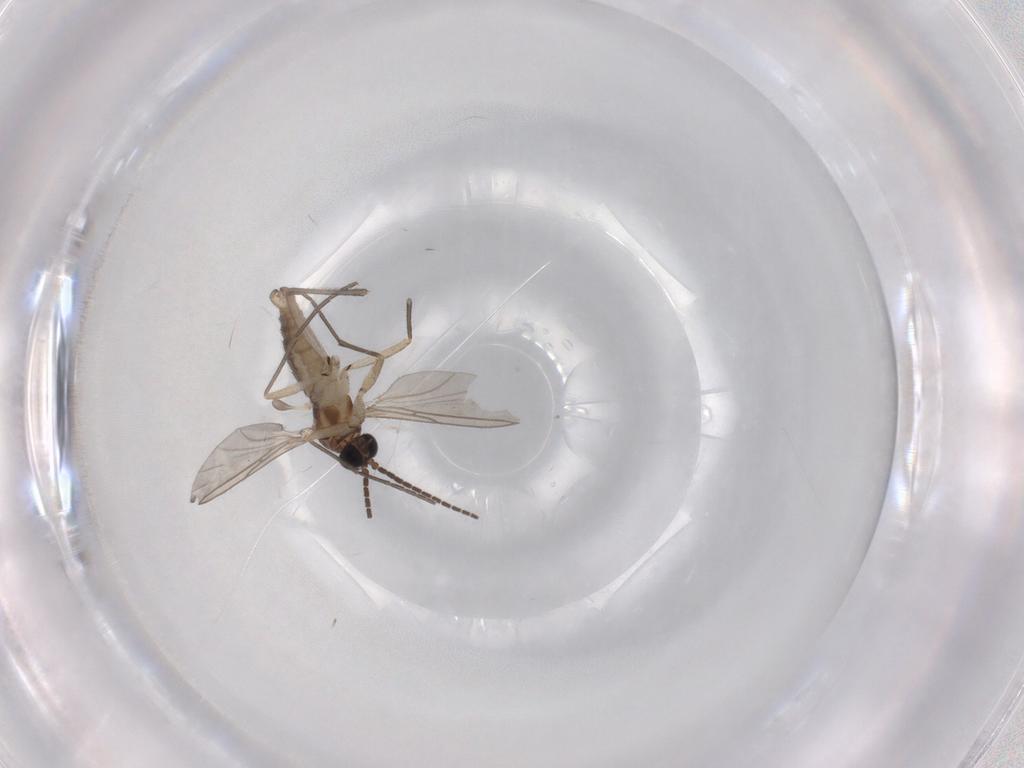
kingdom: Animalia
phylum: Arthropoda
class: Insecta
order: Diptera
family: Sciaridae
